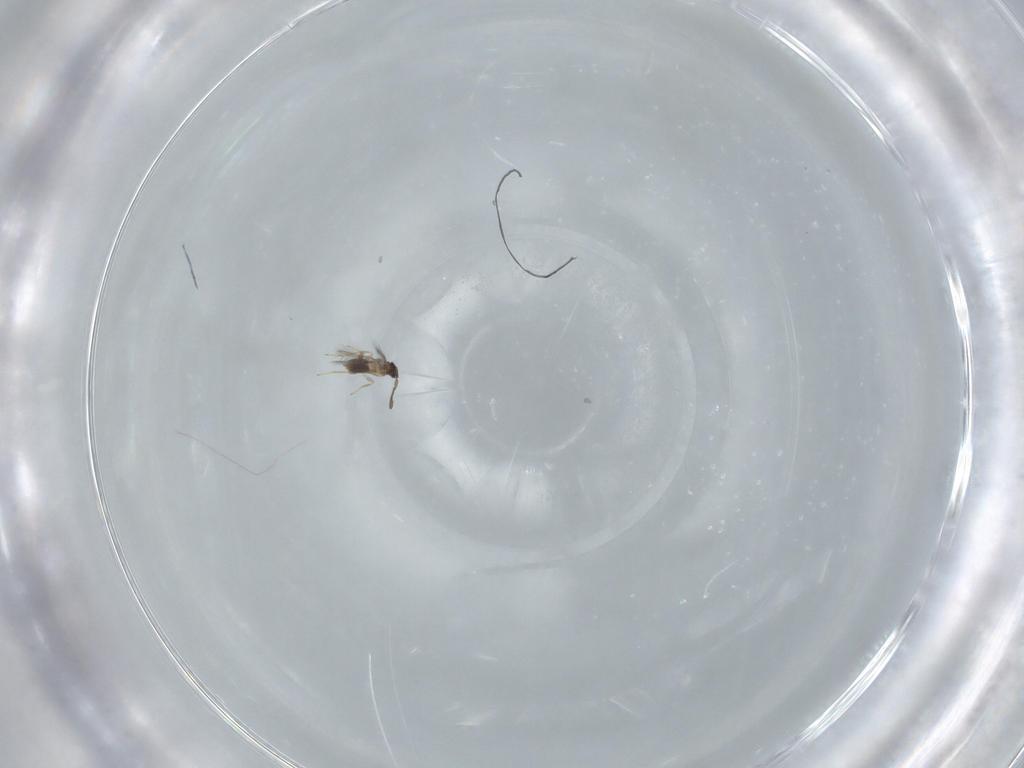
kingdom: Animalia
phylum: Arthropoda
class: Insecta
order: Hymenoptera
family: Mymaridae
